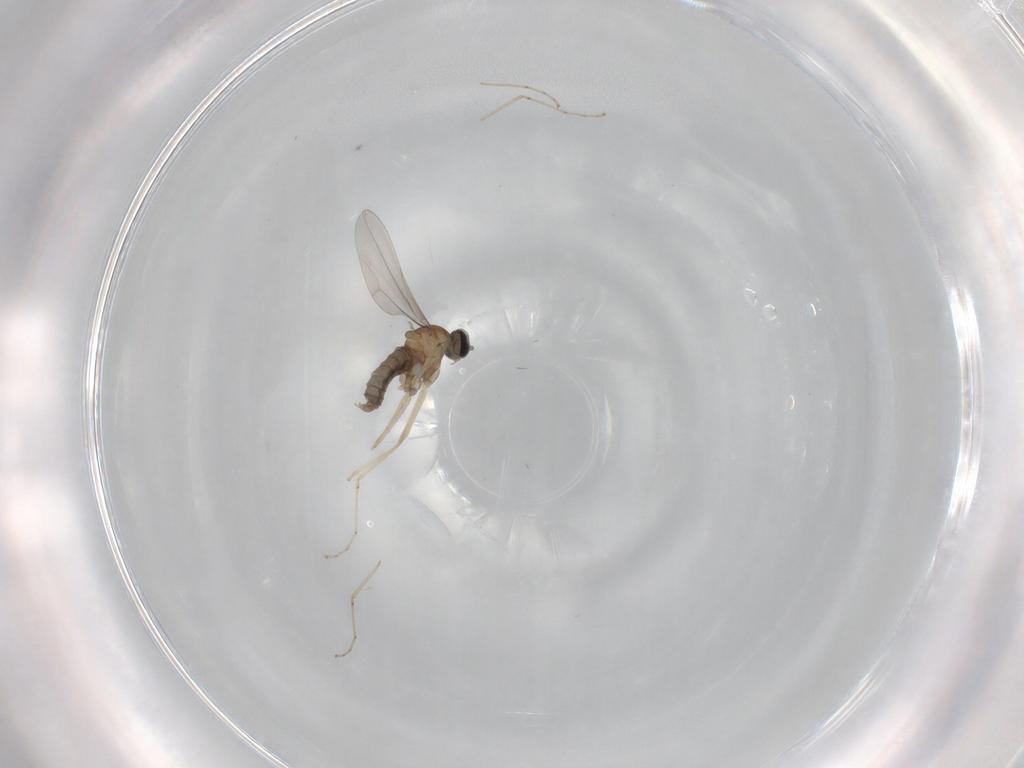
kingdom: Animalia
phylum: Arthropoda
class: Insecta
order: Diptera
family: Cecidomyiidae
